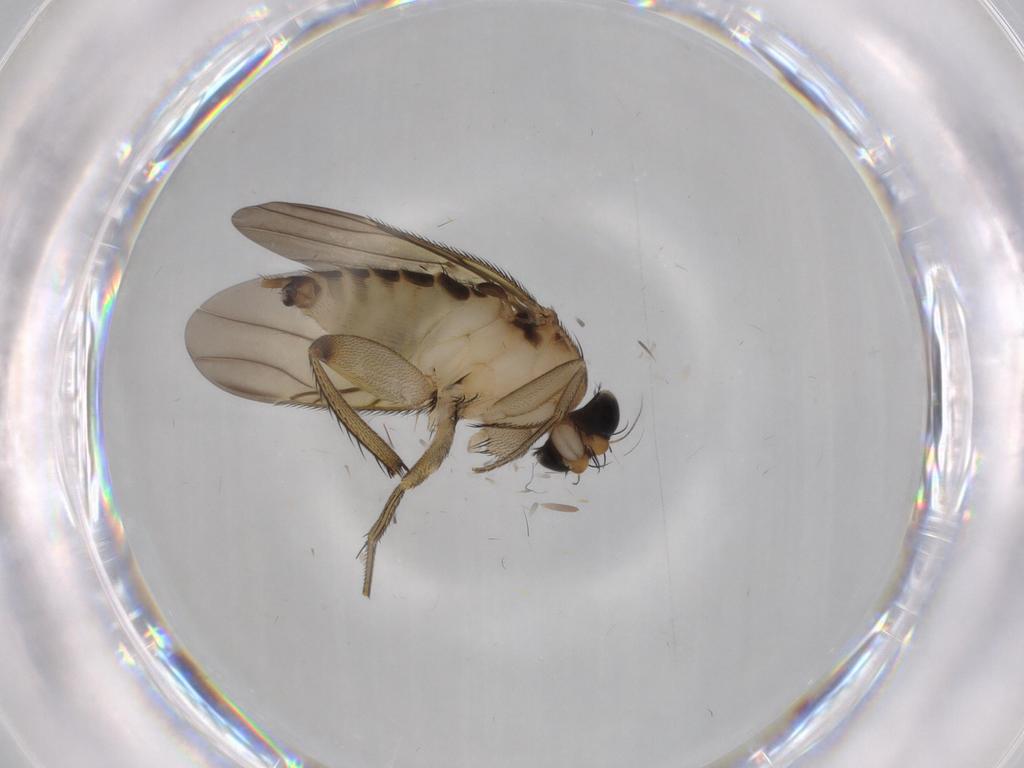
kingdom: Animalia
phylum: Arthropoda
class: Insecta
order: Diptera
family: Phoridae
